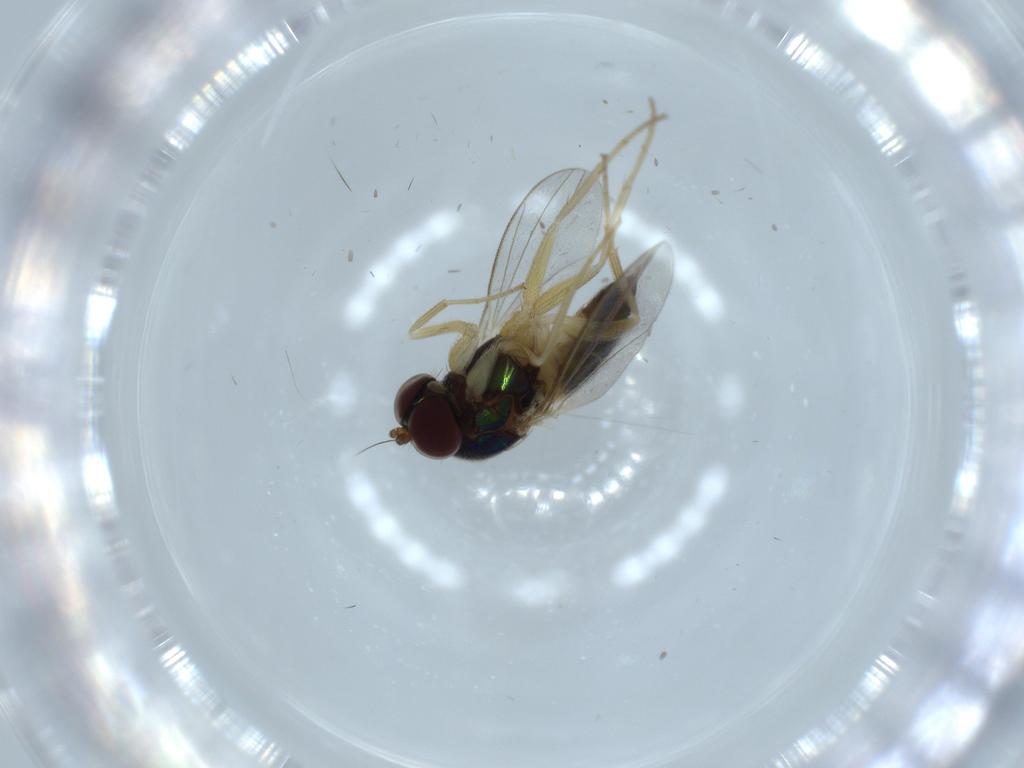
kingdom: Animalia
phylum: Arthropoda
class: Insecta
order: Diptera
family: Dolichopodidae
